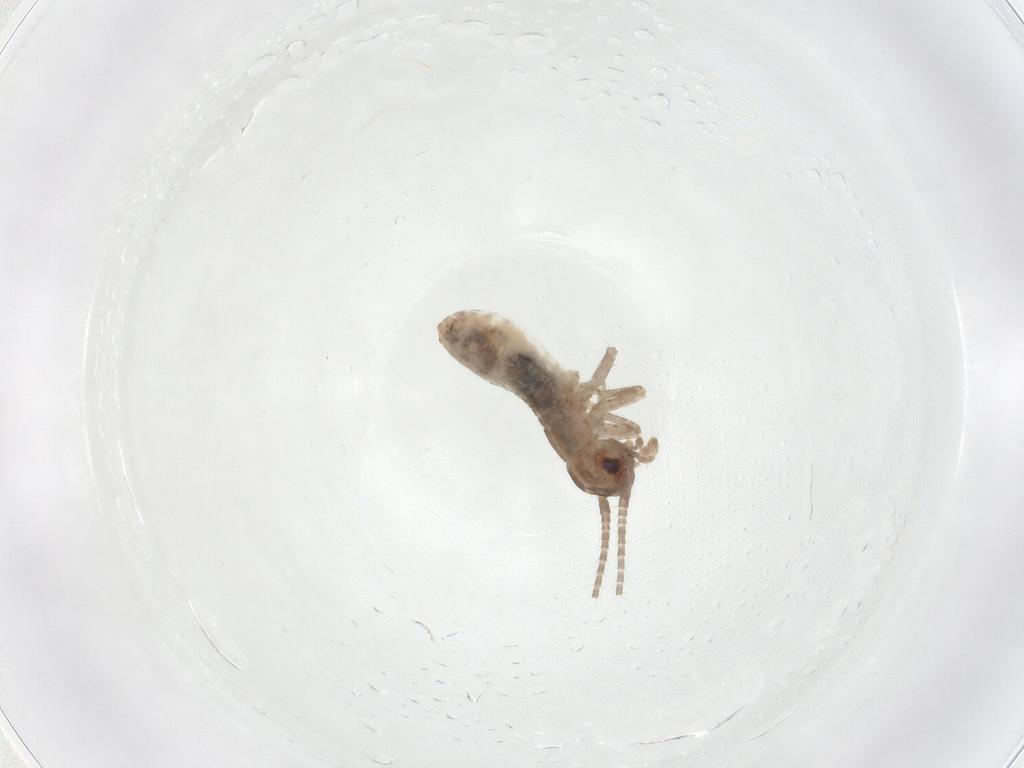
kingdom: Animalia
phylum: Arthropoda
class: Insecta
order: Orthoptera
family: Mogoplistidae
